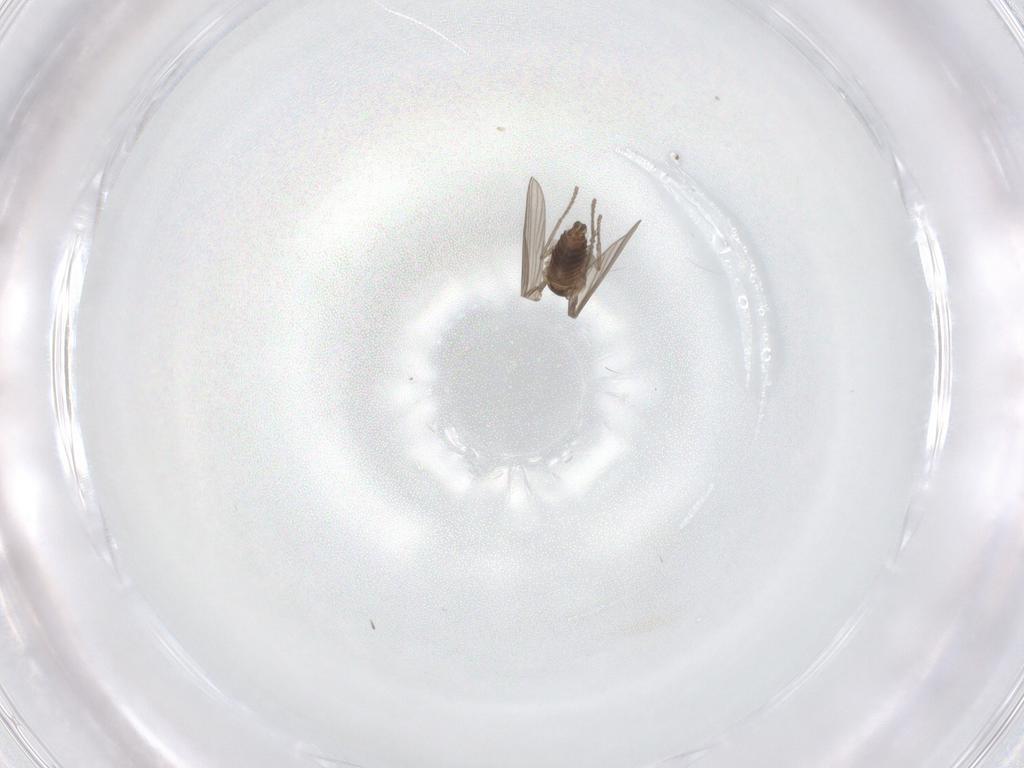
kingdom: Animalia
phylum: Arthropoda
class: Insecta
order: Diptera
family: Psychodidae
